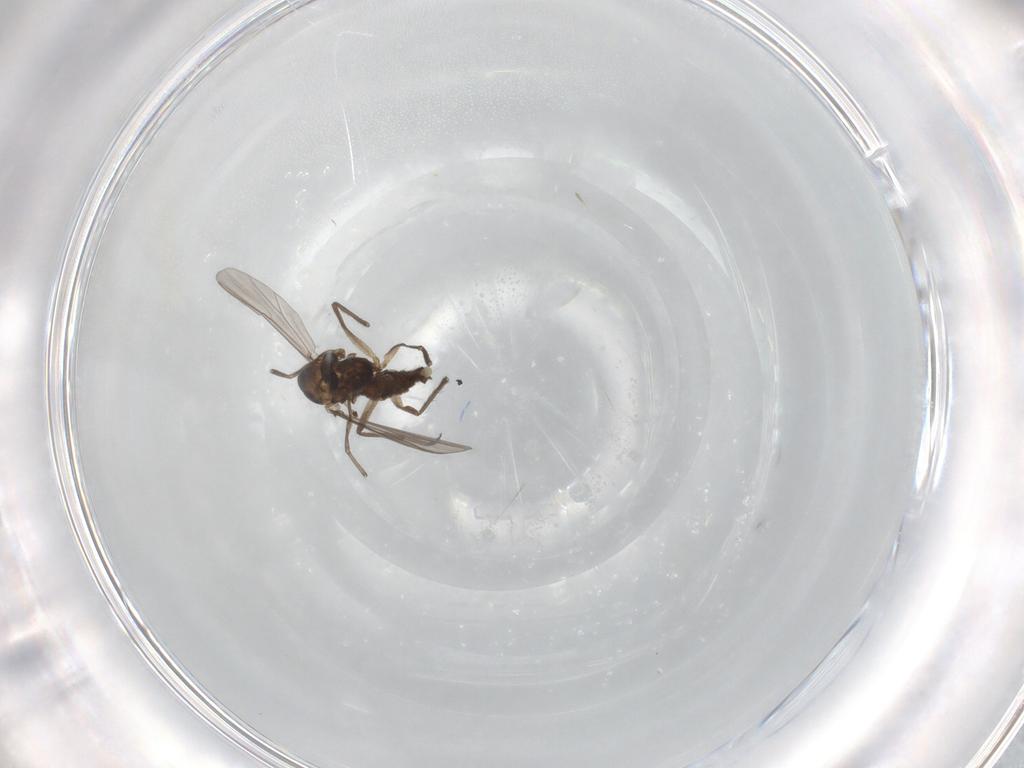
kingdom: Animalia
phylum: Arthropoda
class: Insecta
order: Diptera
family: Chironomidae
